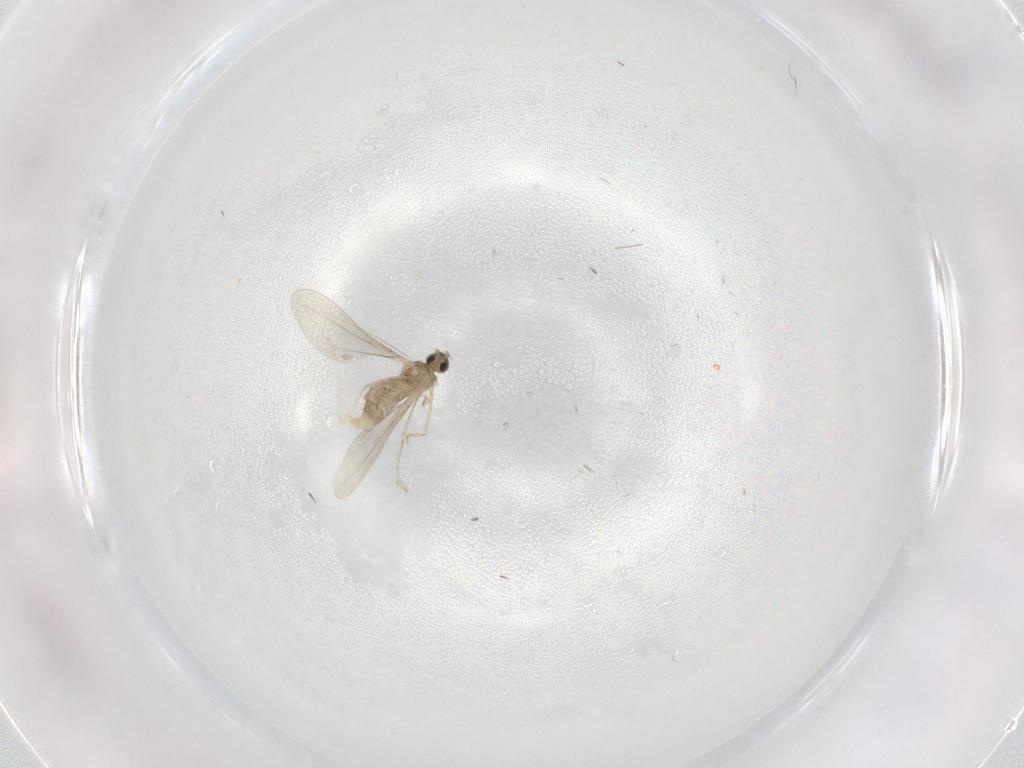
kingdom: Animalia
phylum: Arthropoda
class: Insecta
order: Diptera
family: Cecidomyiidae
